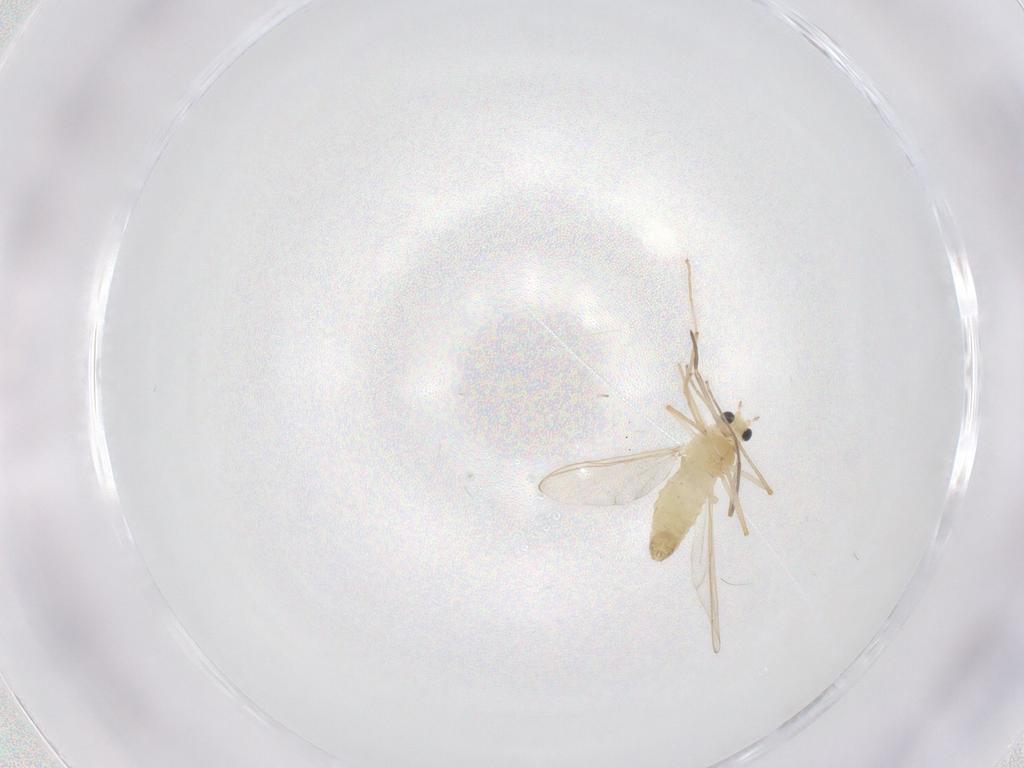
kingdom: Animalia
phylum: Arthropoda
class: Insecta
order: Diptera
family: Chironomidae
